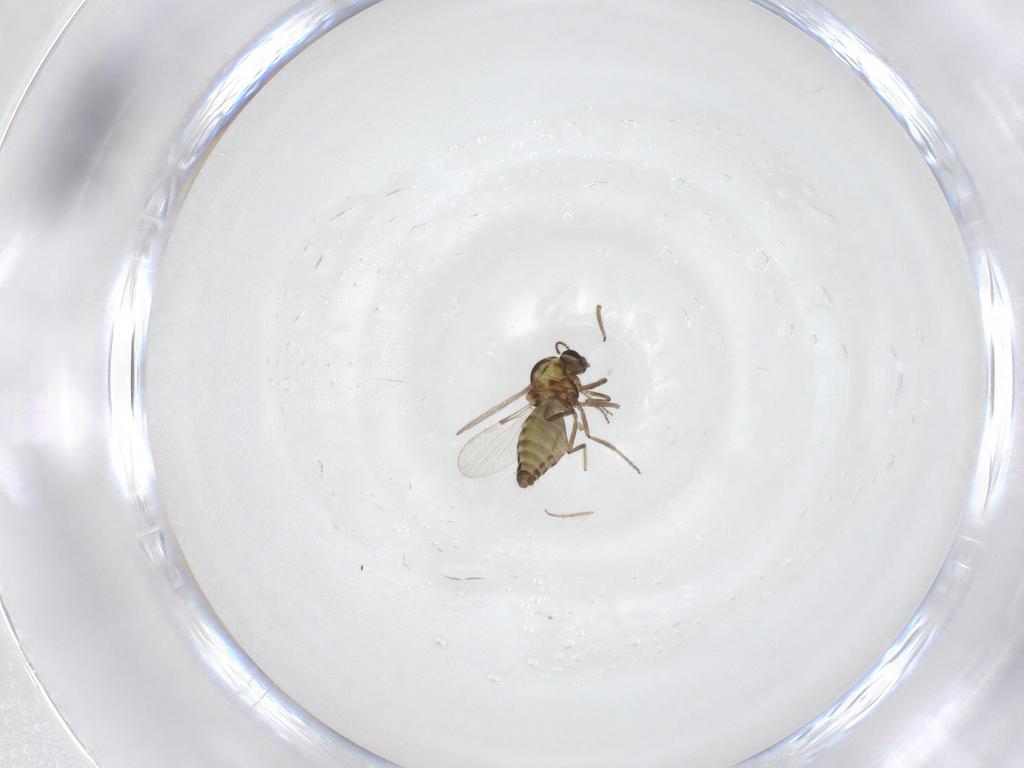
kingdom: Animalia
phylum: Arthropoda
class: Insecta
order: Diptera
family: Ceratopogonidae
